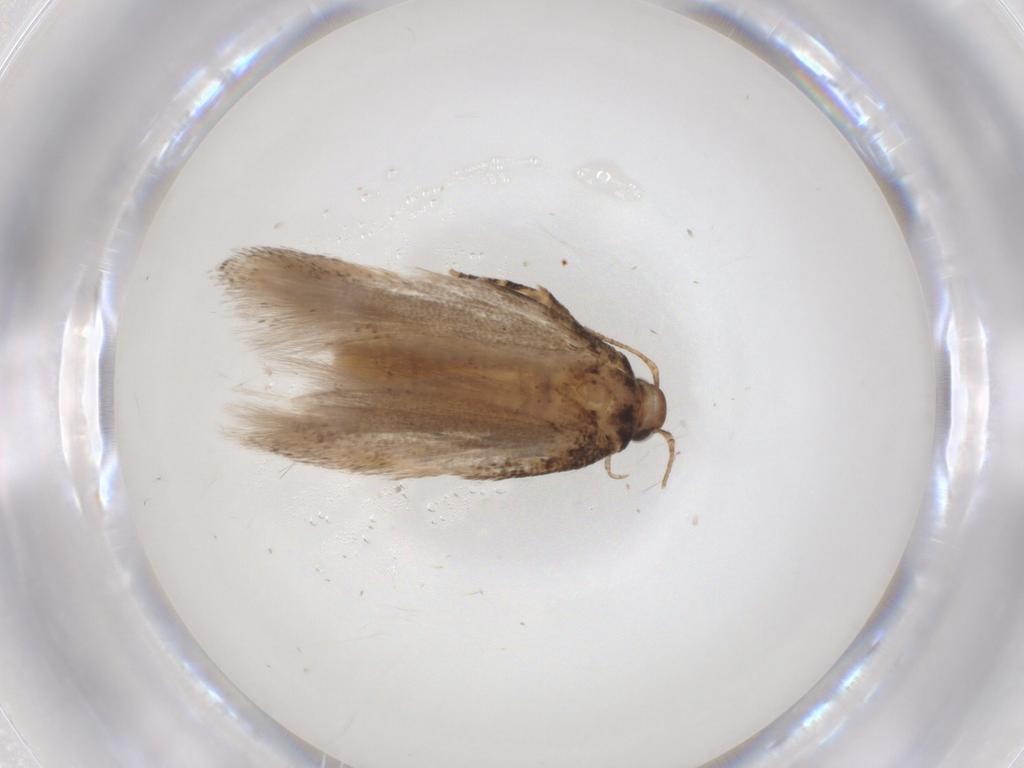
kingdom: Animalia
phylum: Arthropoda
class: Insecta
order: Lepidoptera
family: Gelechiidae
